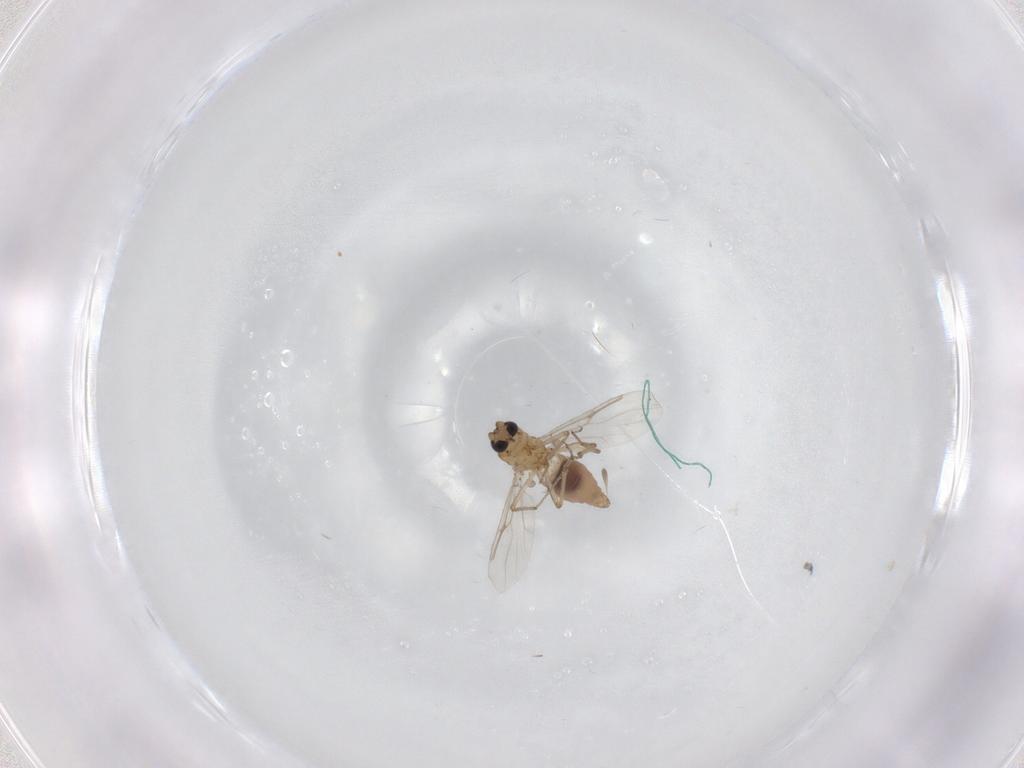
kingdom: Animalia
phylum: Arthropoda
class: Insecta
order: Diptera
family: Chironomidae
